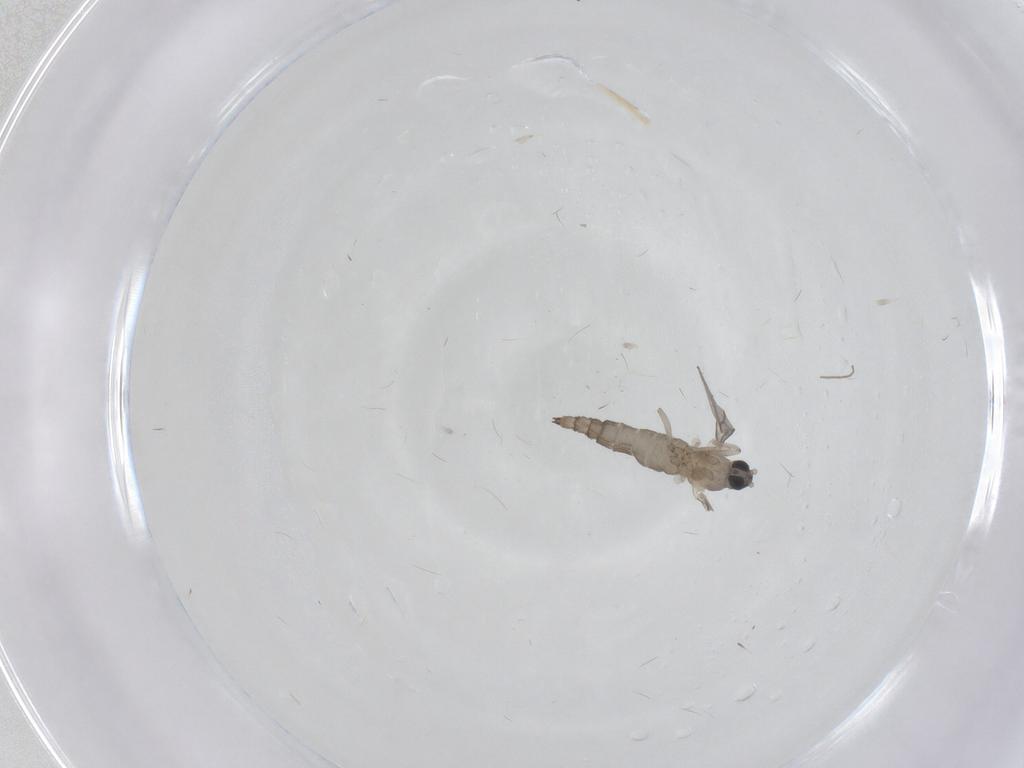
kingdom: Animalia
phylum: Arthropoda
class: Insecta
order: Diptera
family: Cecidomyiidae
